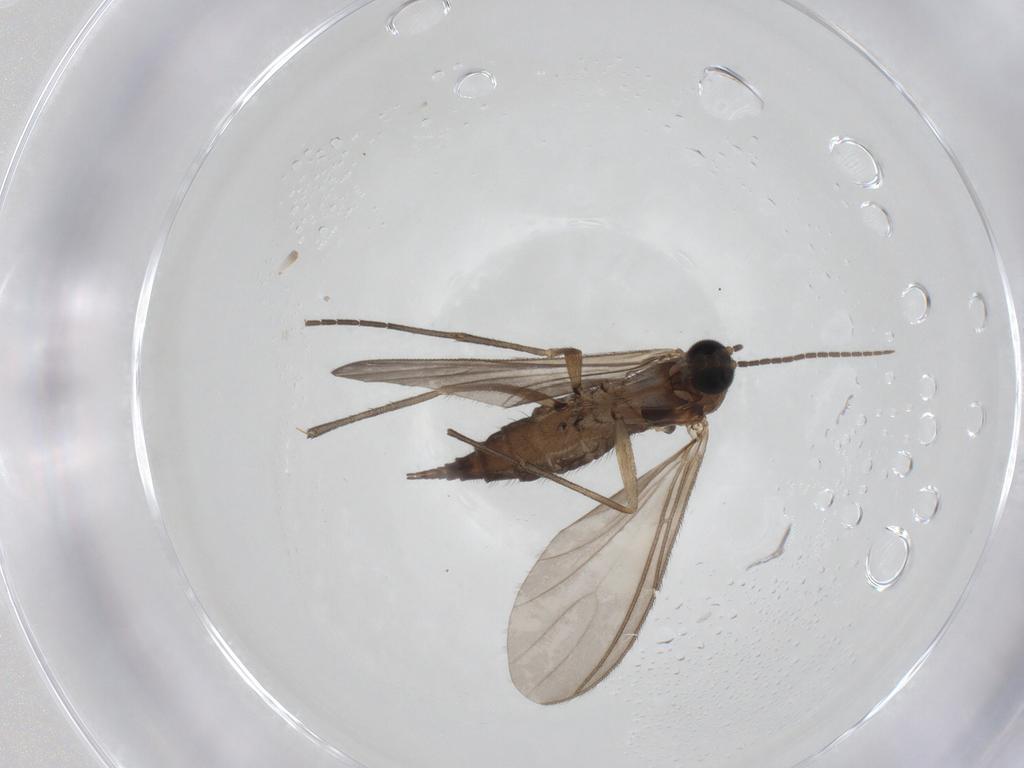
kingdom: Animalia
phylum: Arthropoda
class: Insecta
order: Diptera
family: Sciaridae
